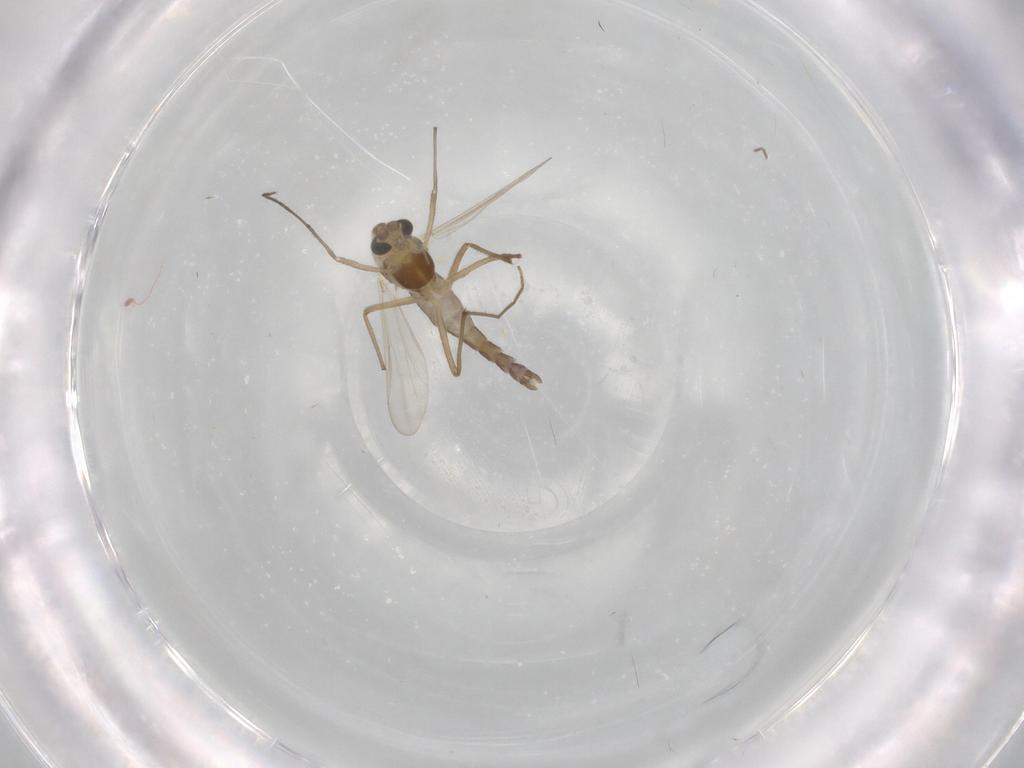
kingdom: Animalia
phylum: Arthropoda
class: Insecta
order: Diptera
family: Chironomidae
